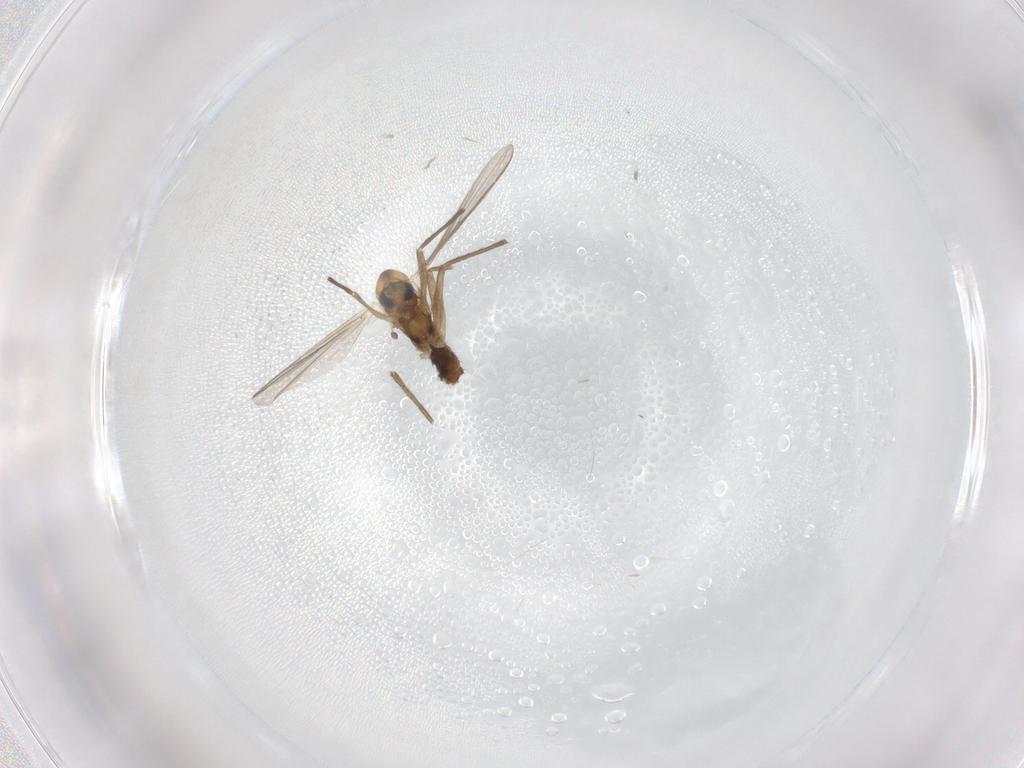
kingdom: Animalia
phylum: Arthropoda
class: Insecta
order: Diptera
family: Chironomidae
